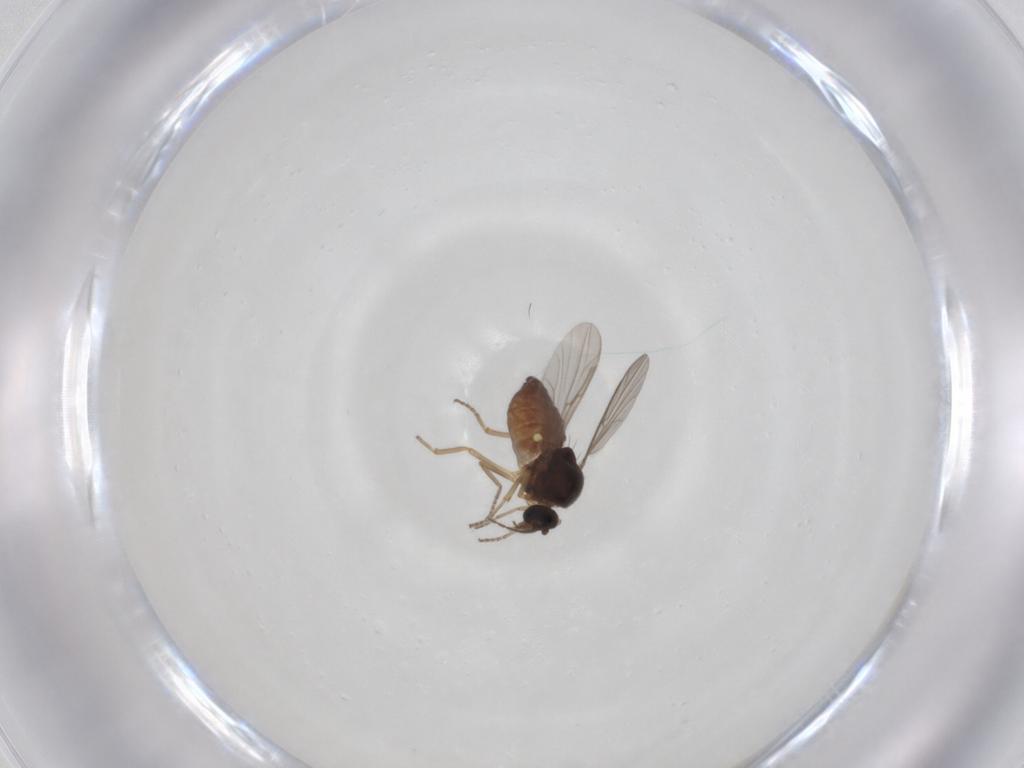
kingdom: Animalia
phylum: Arthropoda
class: Insecta
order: Diptera
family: Ceratopogonidae
